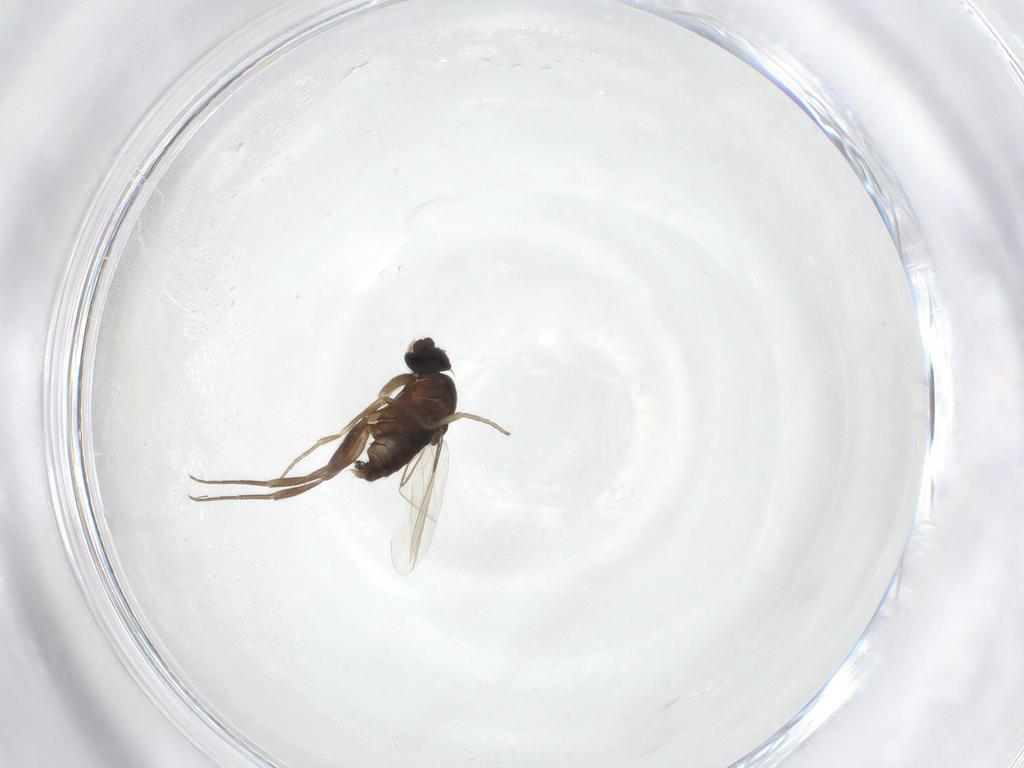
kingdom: Animalia
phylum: Arthropoda
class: Insecta
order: Diptera
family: Phoridae
